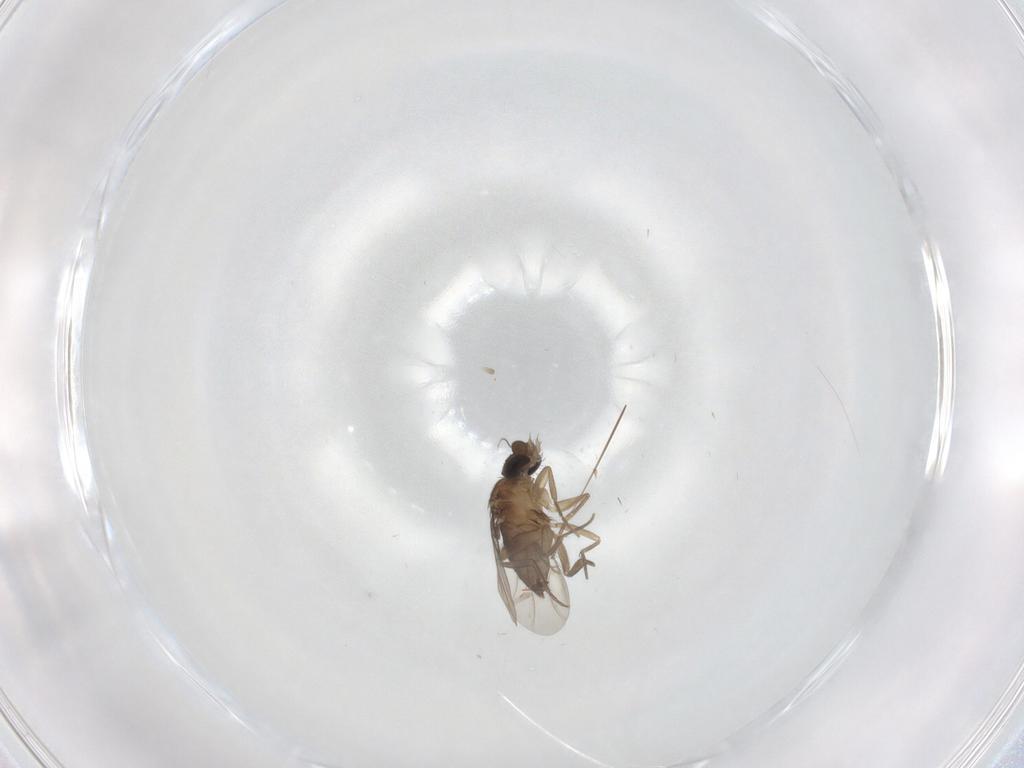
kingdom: Animalia
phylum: Arthropoda
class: Insecta
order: Diptera
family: Phoridae
